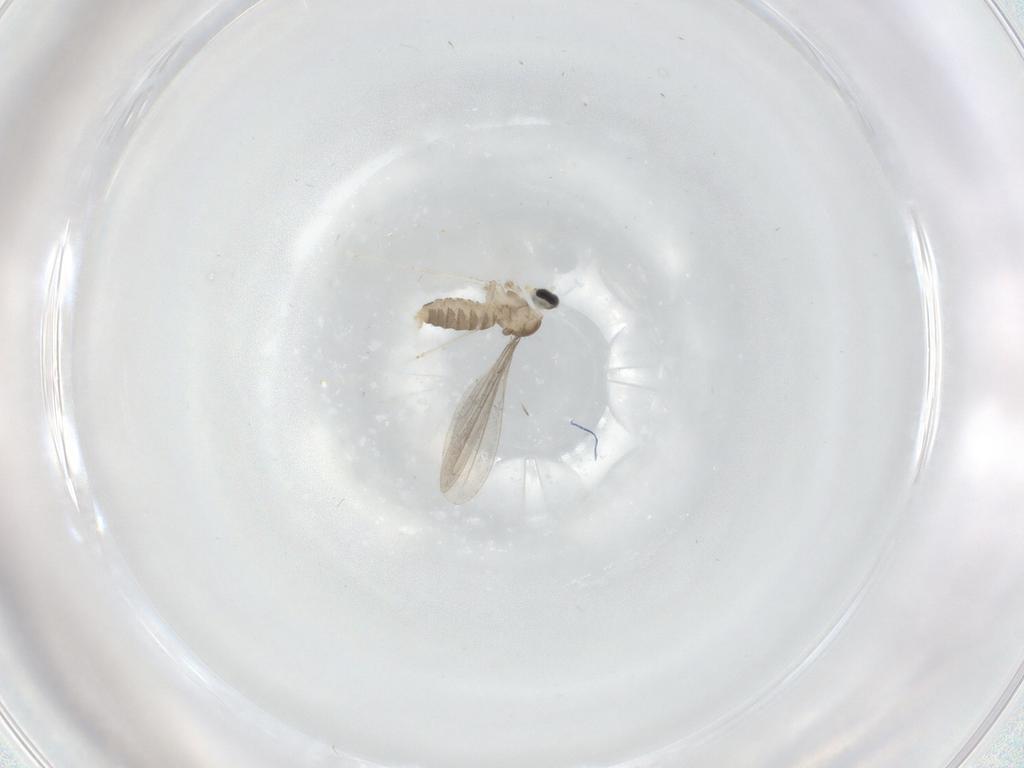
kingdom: Animalia
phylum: Arthropoda
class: Insecta
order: Diptera
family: Cecidomyiidae
